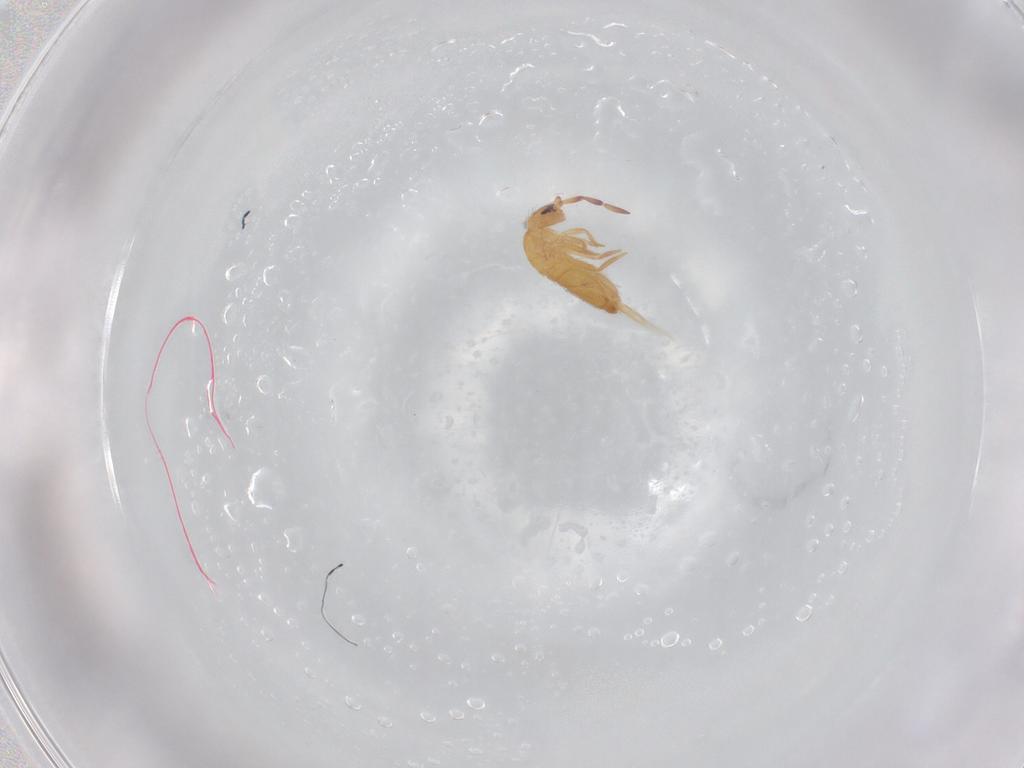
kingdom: Animalia
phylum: Arthropoda
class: Collembola
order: Entomobryomorpha
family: Entomobryidae
